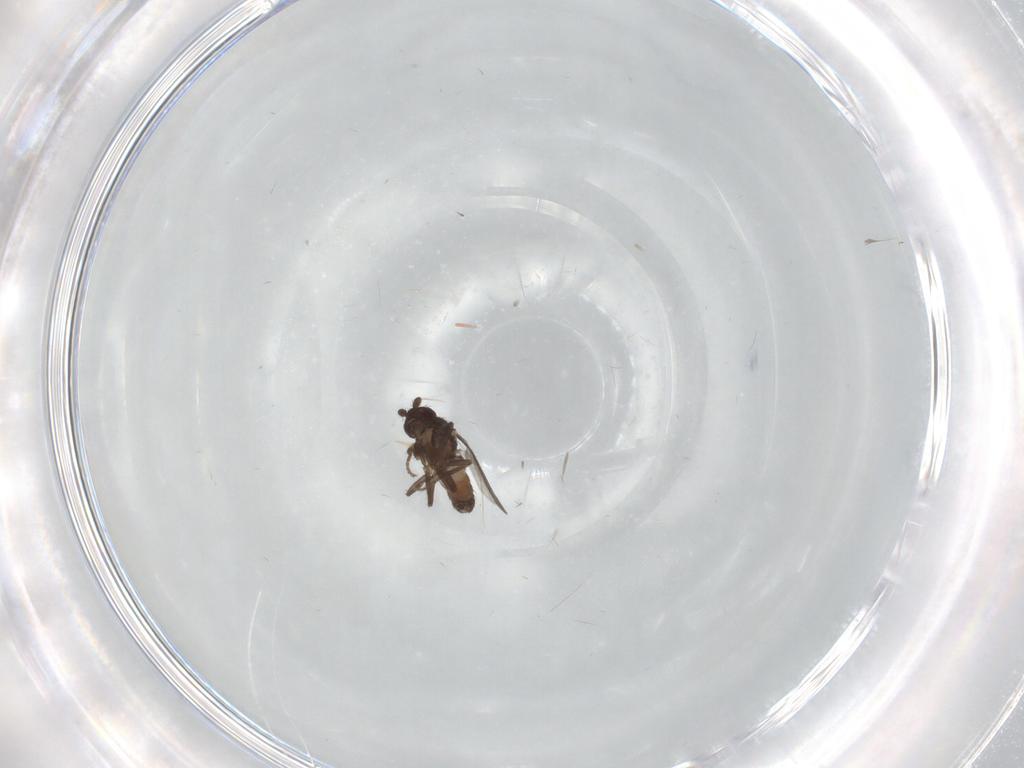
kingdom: Animalia
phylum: Arthropoda
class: Insecta
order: Diptera
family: Sphaeroceridae
